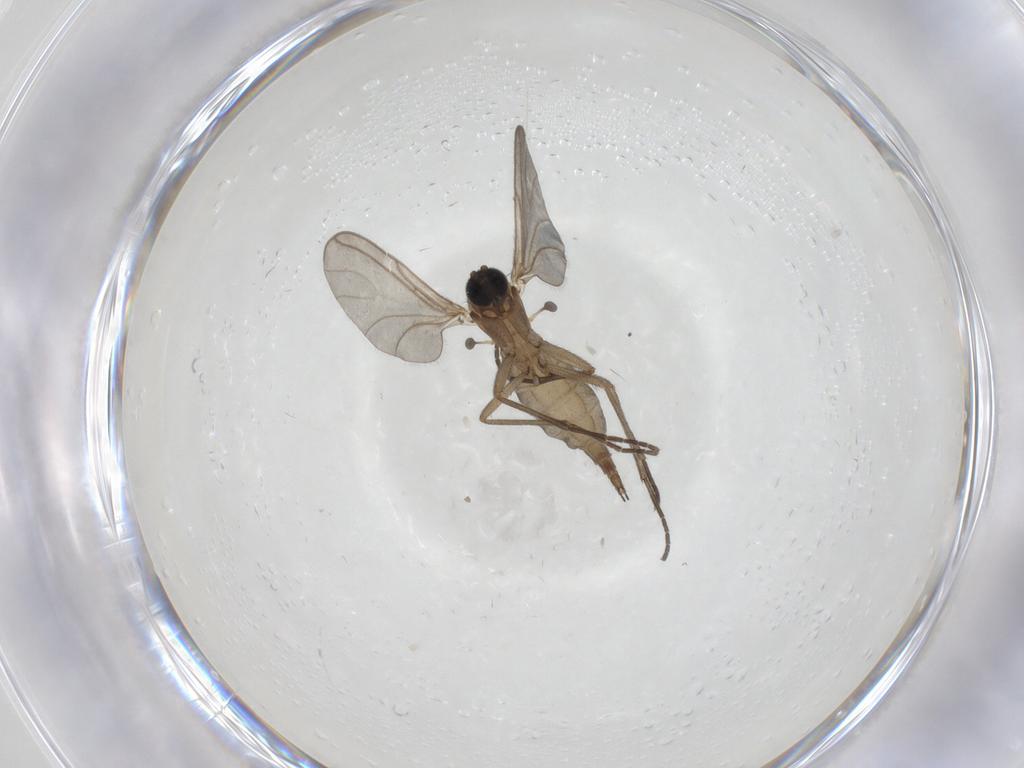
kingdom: Animalia
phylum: Arthropoda
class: Insecta
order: Diptera
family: Sciaridae
